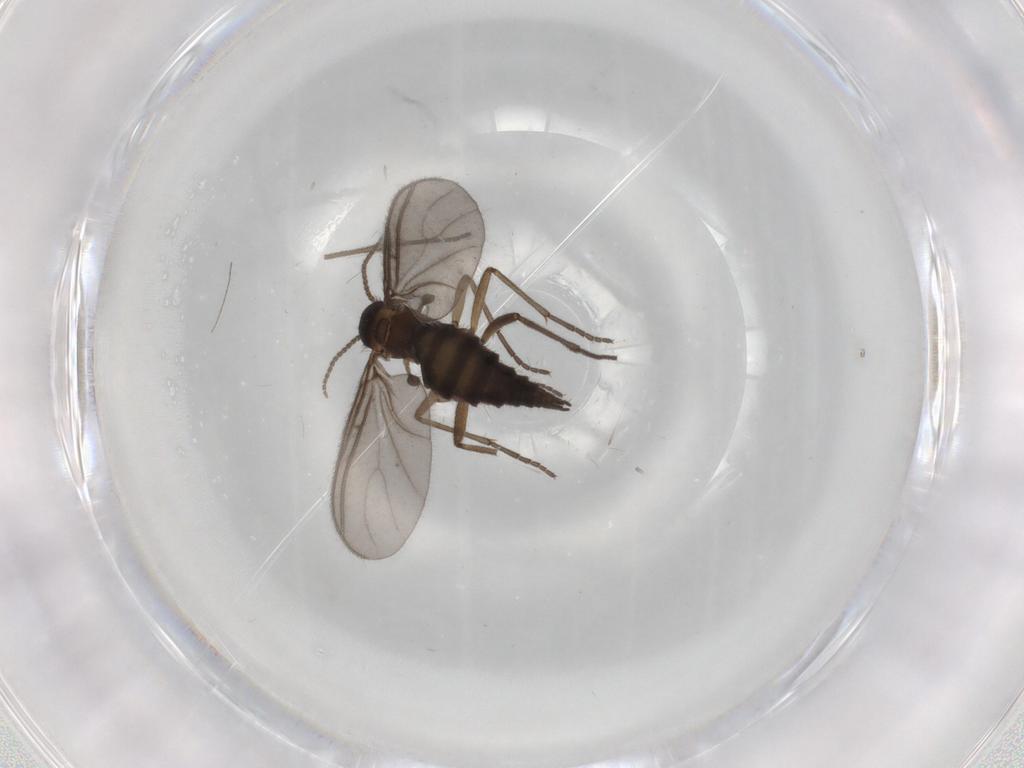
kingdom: Animalia
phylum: Arthropoda
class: Insecta
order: Diptera
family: Sciaridae
